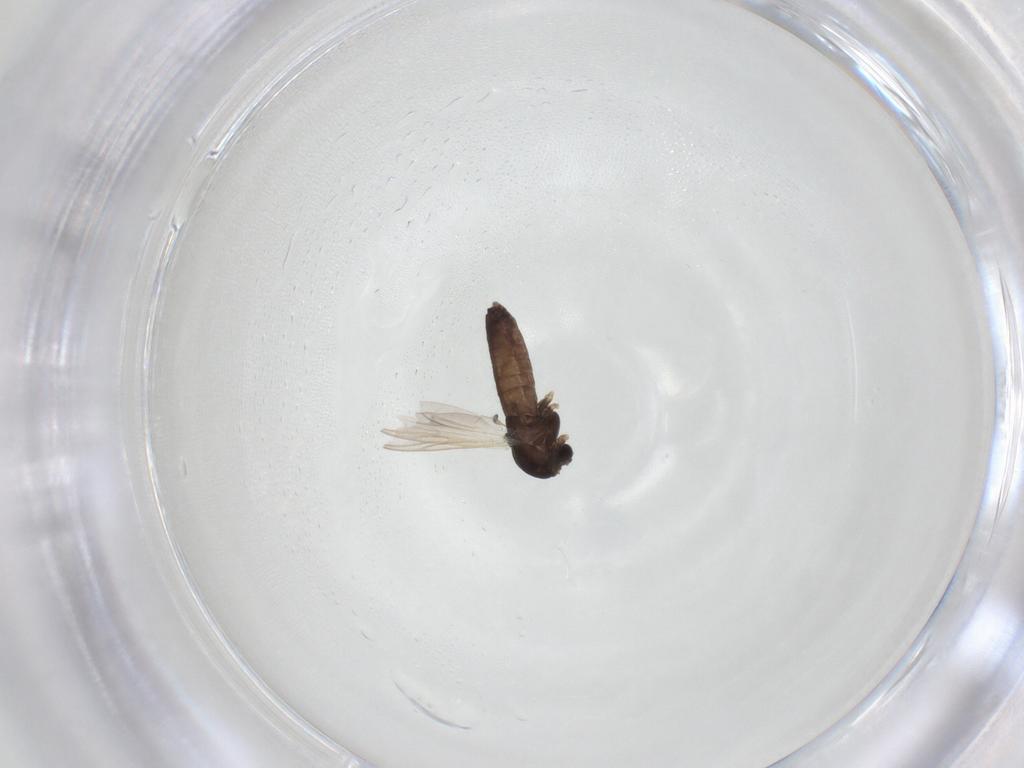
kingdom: Animalia
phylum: Arthropoda
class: Insecta
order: Diptera
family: Chironomidae
